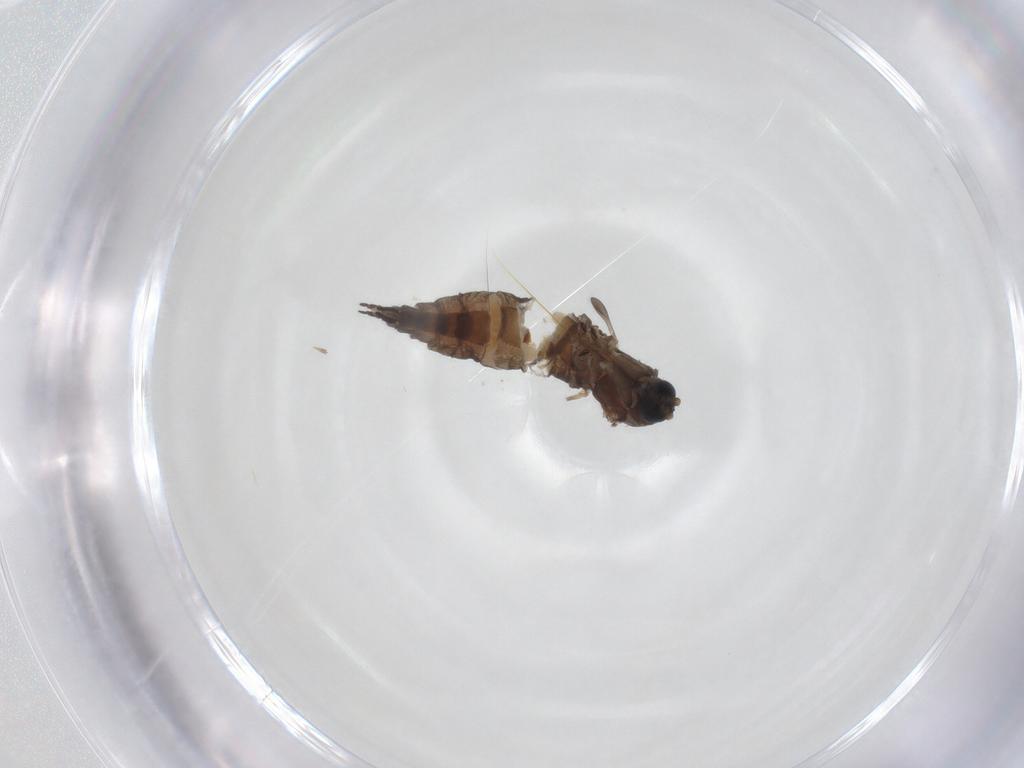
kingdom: Animalia
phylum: Arthropoda
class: Insecta
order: Diptera
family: Sciaridae
